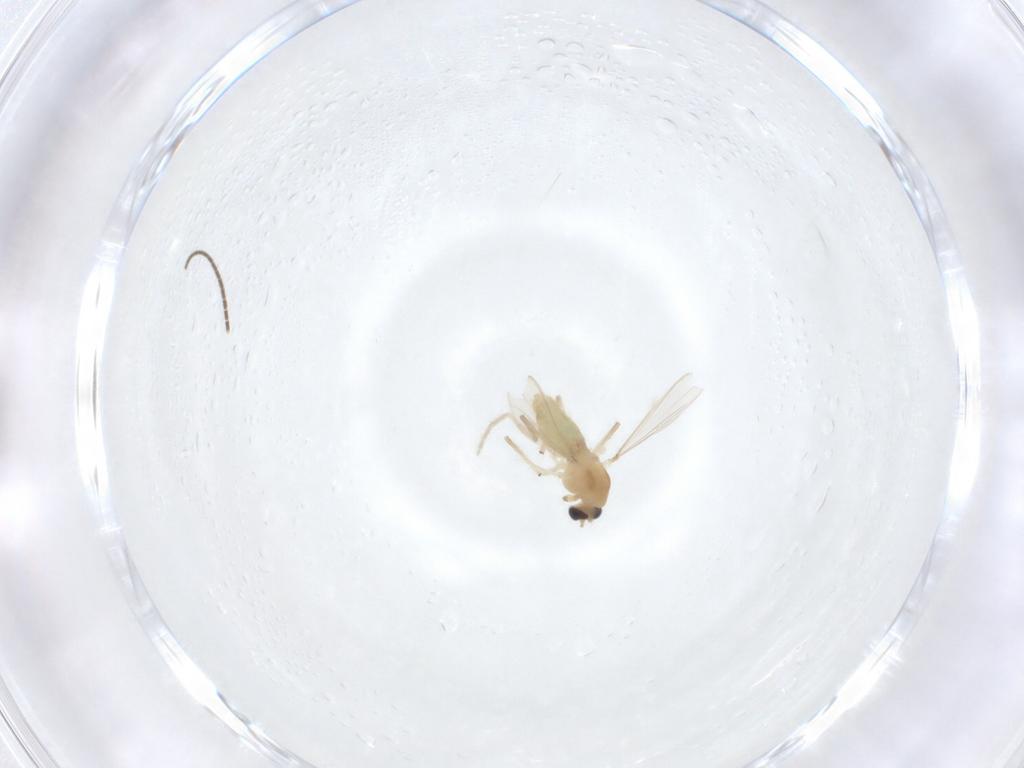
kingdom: Animalia
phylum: Arthropoda
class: Insecta
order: Diptera
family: Sciaridae
